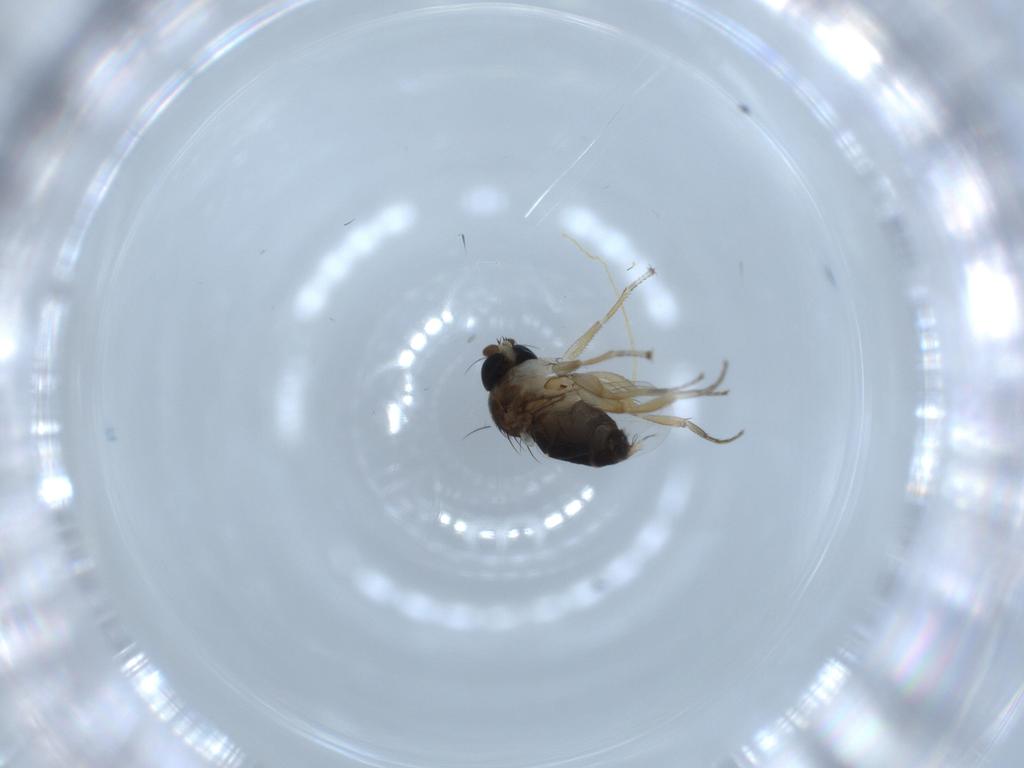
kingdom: Animalia
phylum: Arthropoda
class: Insecta
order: Diptera
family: Phoridae
